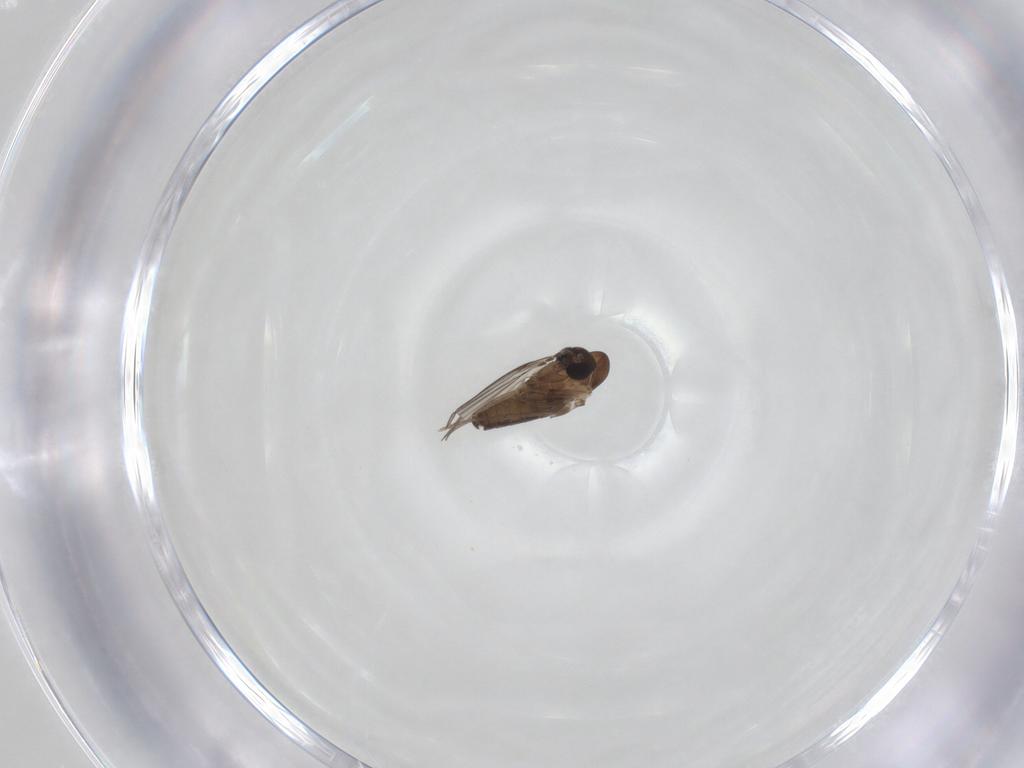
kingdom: Animalia
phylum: Arthropoda
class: Insecta
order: Diptera
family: Psychodidae
